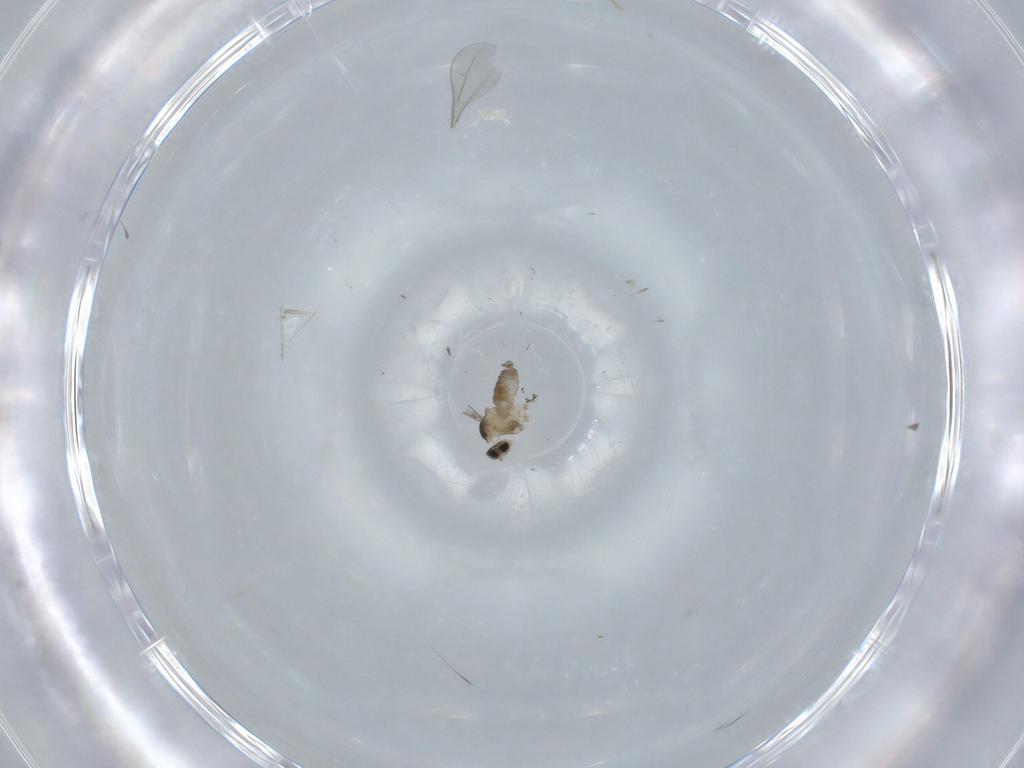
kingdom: Animalia
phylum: Arthropoda
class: Insecta
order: Diptera
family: Cecidomyiidae
